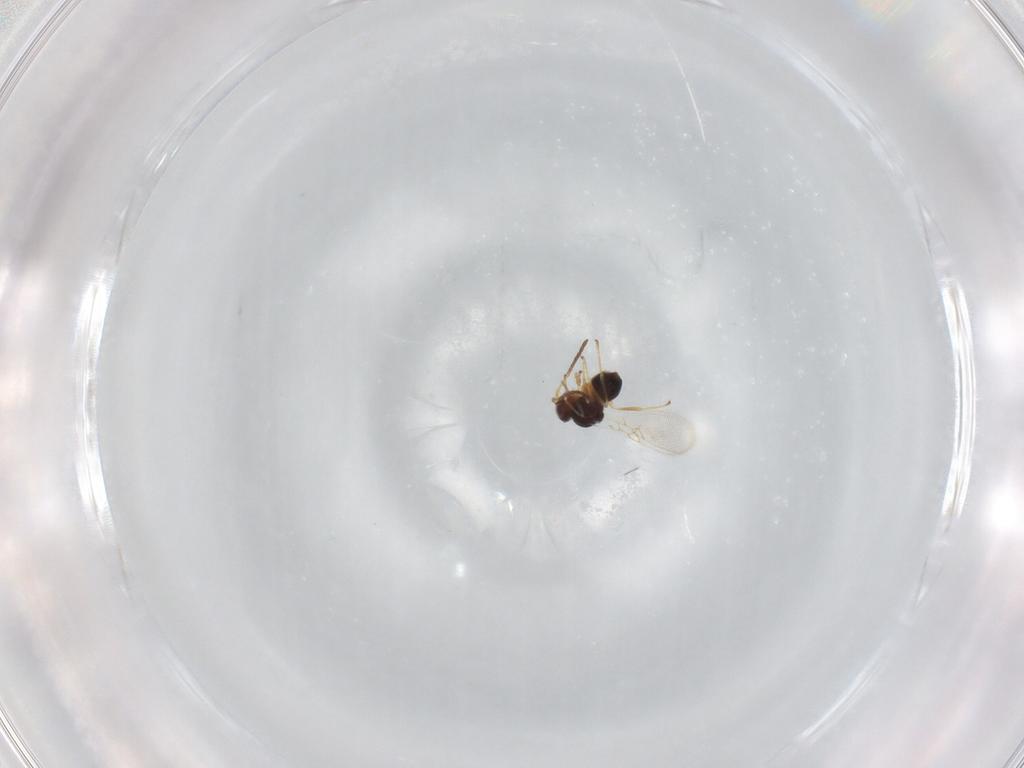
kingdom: Animalia
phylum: Arthropoda
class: Insecta
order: Hymenoptera
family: Figitidae
